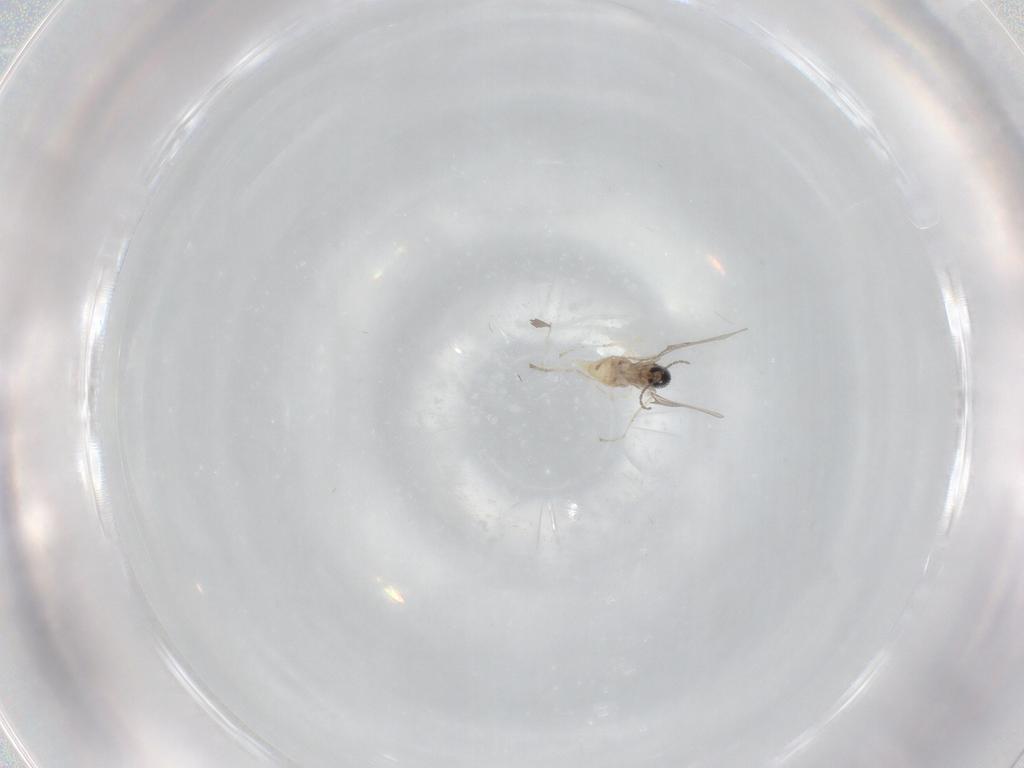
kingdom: Animalia
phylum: Arthropoda
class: Insecta
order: Diptera
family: Cecidomyiidae
